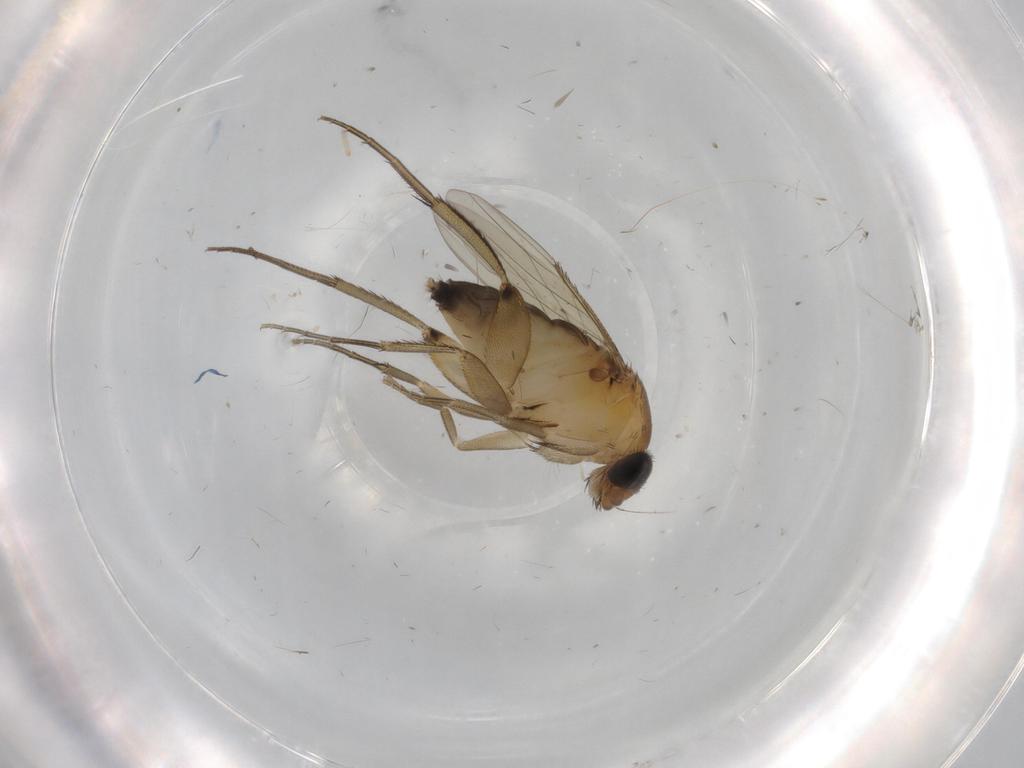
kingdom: Animalia
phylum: Arthropoda
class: Insecta
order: Diptera
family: Phoridae
